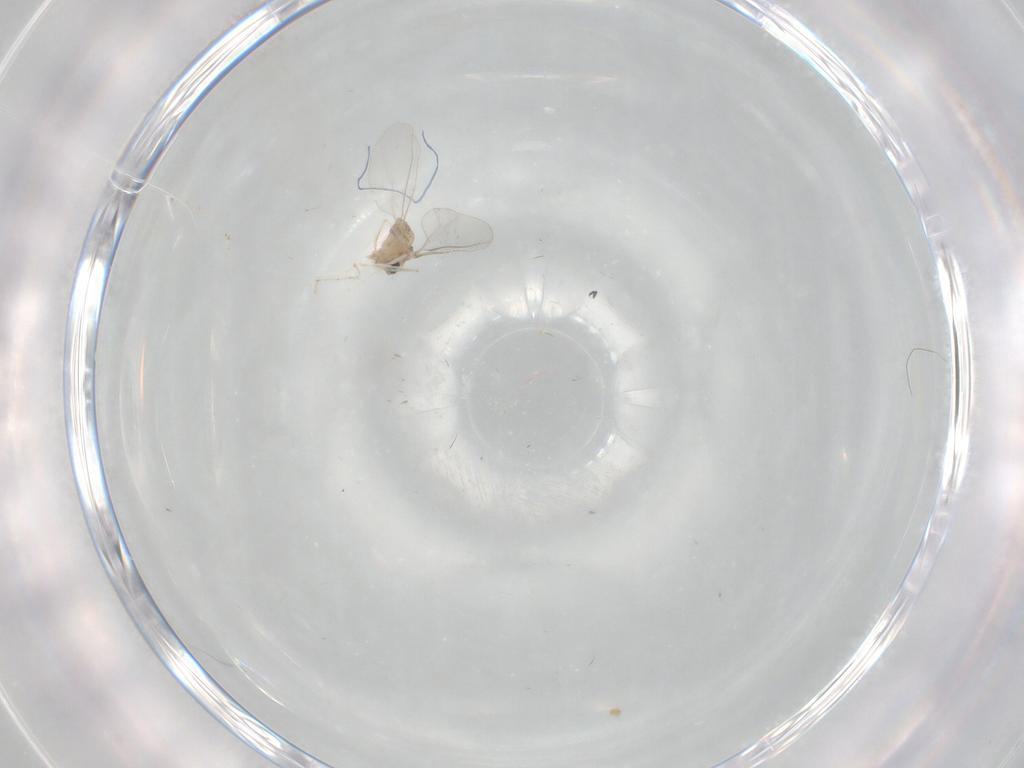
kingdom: Animalia
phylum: Arthropoda
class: Insecta
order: Diptera
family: Cecidomyiidae
